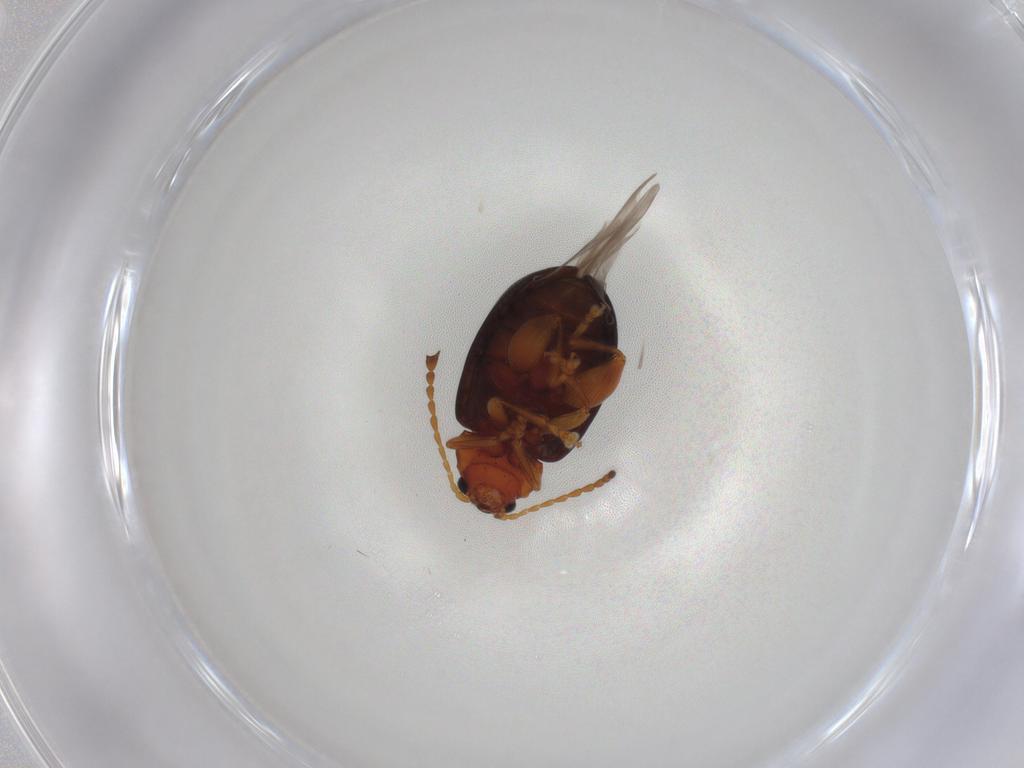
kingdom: Animalia
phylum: Arthropoda
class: Insecta
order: Coleoptera
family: Chrysomelidae
